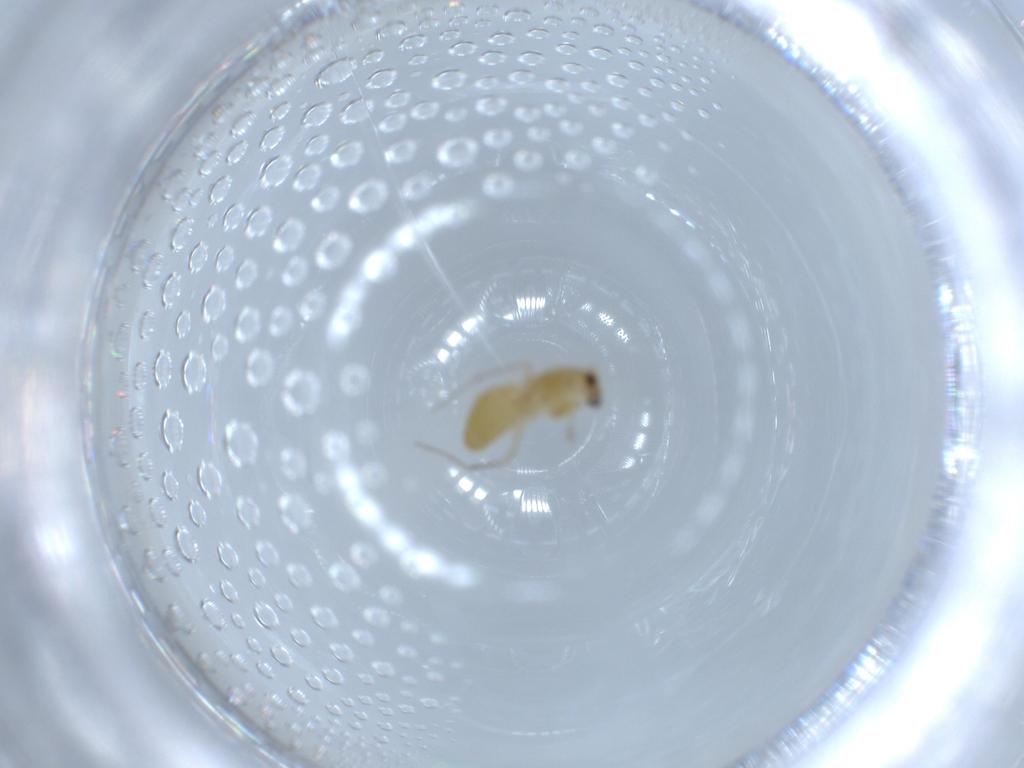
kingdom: Animalia
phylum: Arthropoda
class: Insecta
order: Diptera
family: Chironomidae
